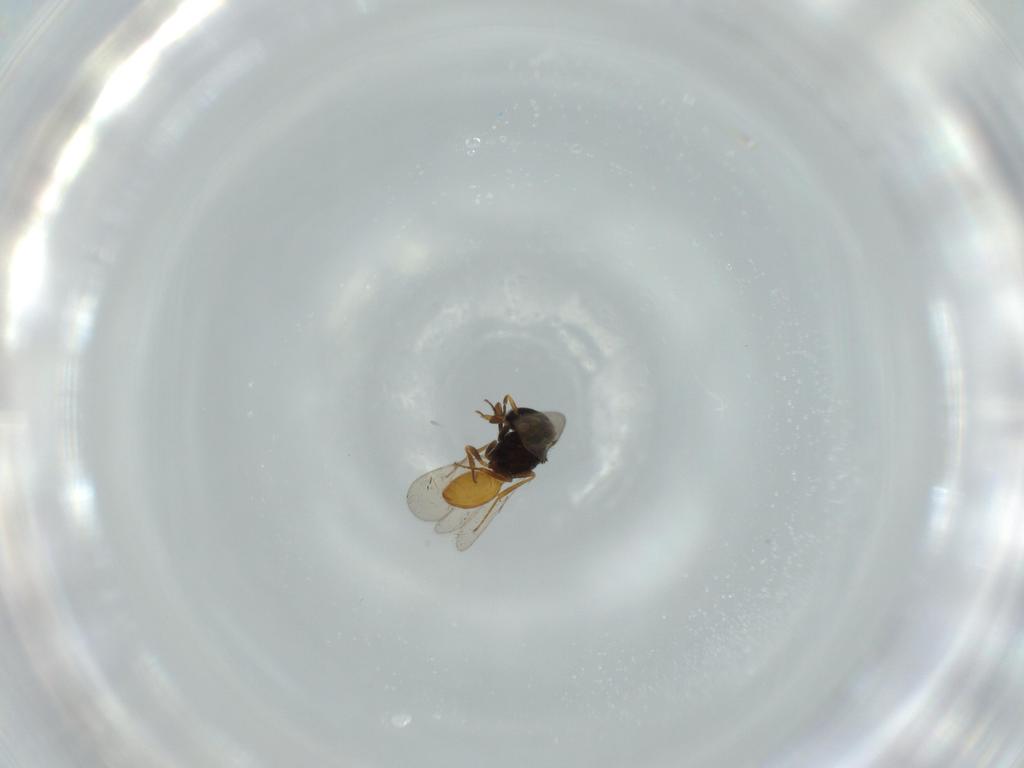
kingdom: Animalia
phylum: Arthropoda
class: Insecta
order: Hymenoptera
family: Scelionidae
